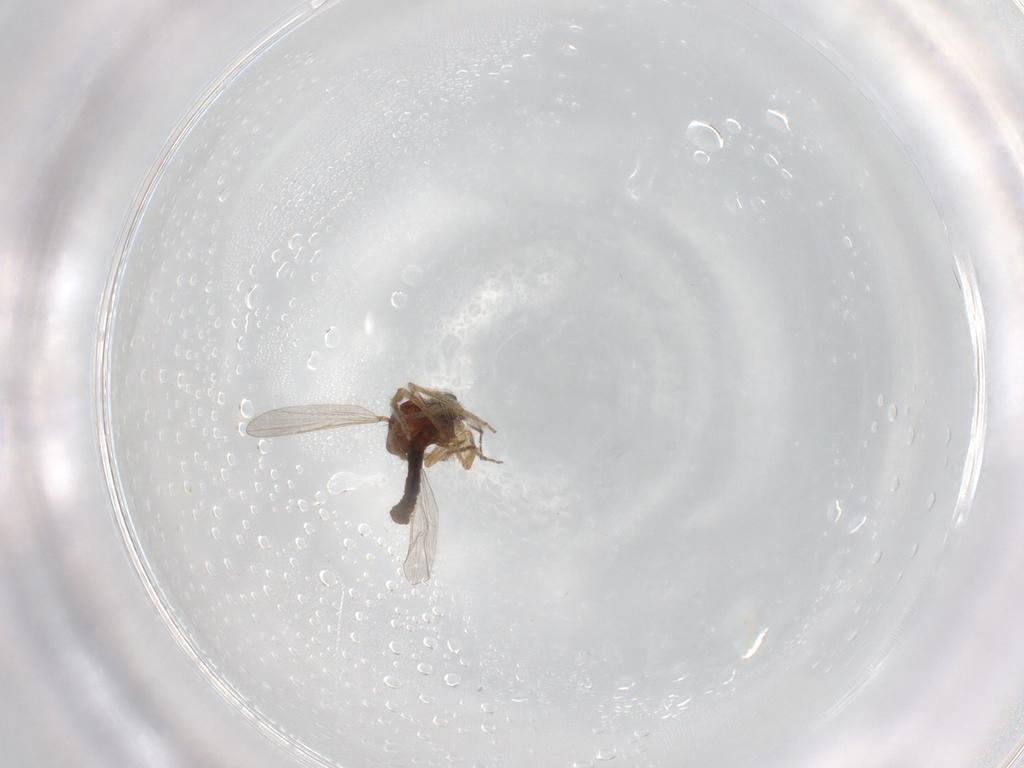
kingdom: Animalia
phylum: Arthropoda
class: Insecta
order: Diptera
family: Ceratopogonidae
